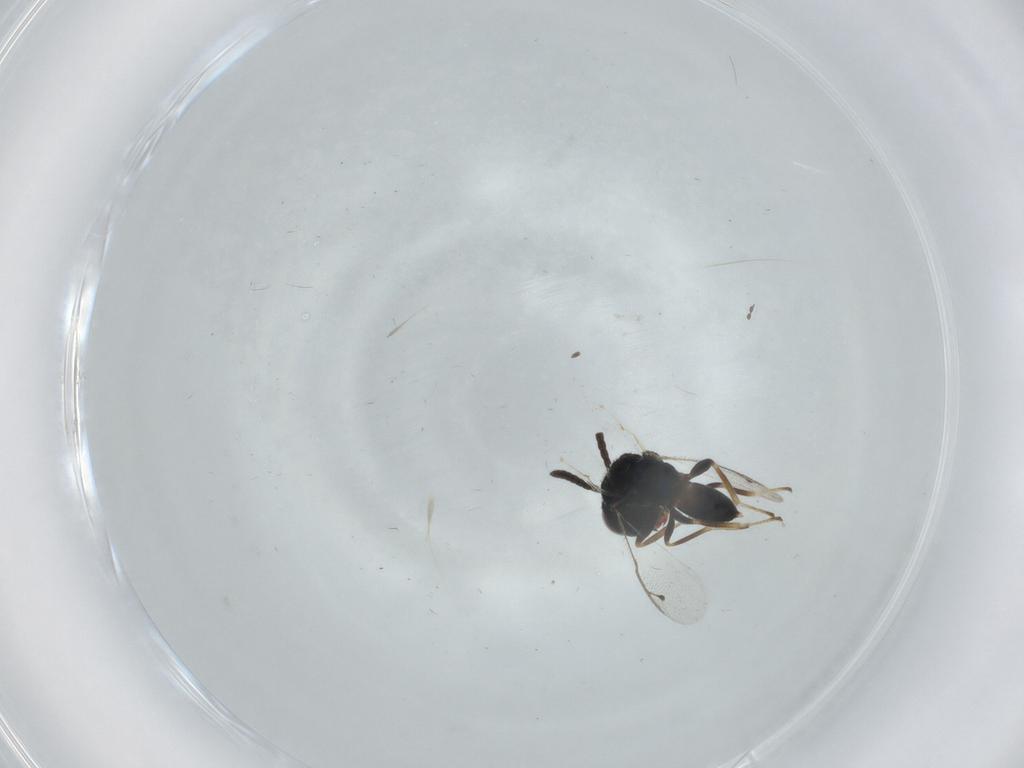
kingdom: Animalia
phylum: Arthropoda
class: Insecta
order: Hymenoptera
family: Pteromalidae
